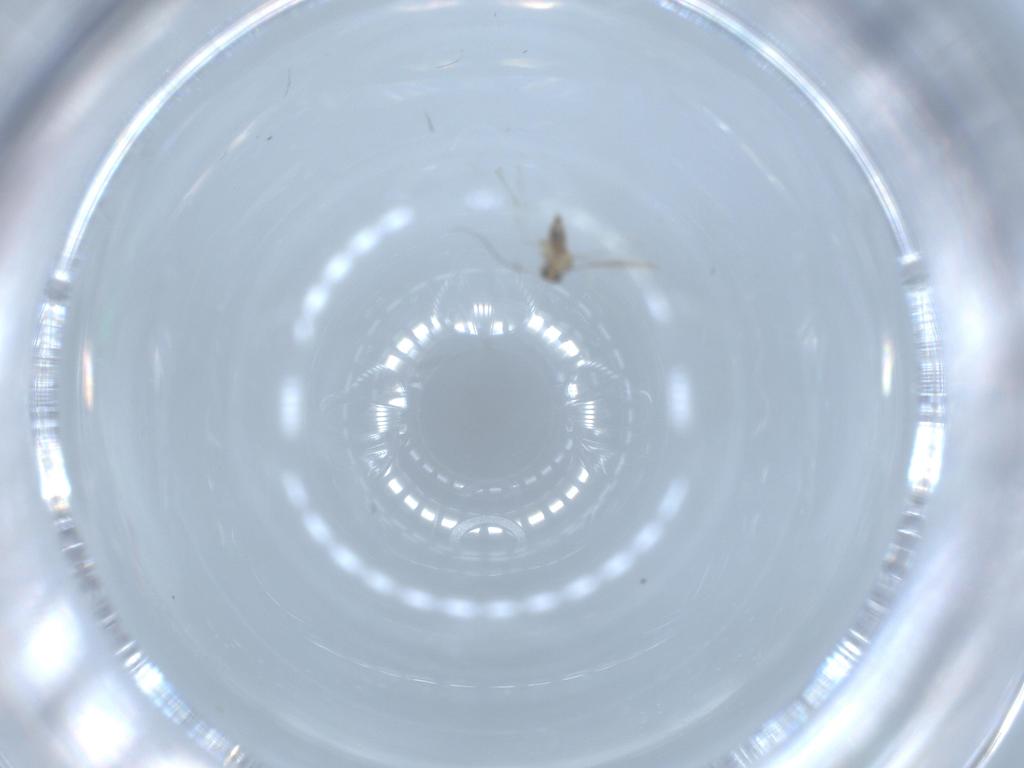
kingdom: Animalia
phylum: Arthropoda
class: Insecta
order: Diptera
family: Cecidomyiidae
